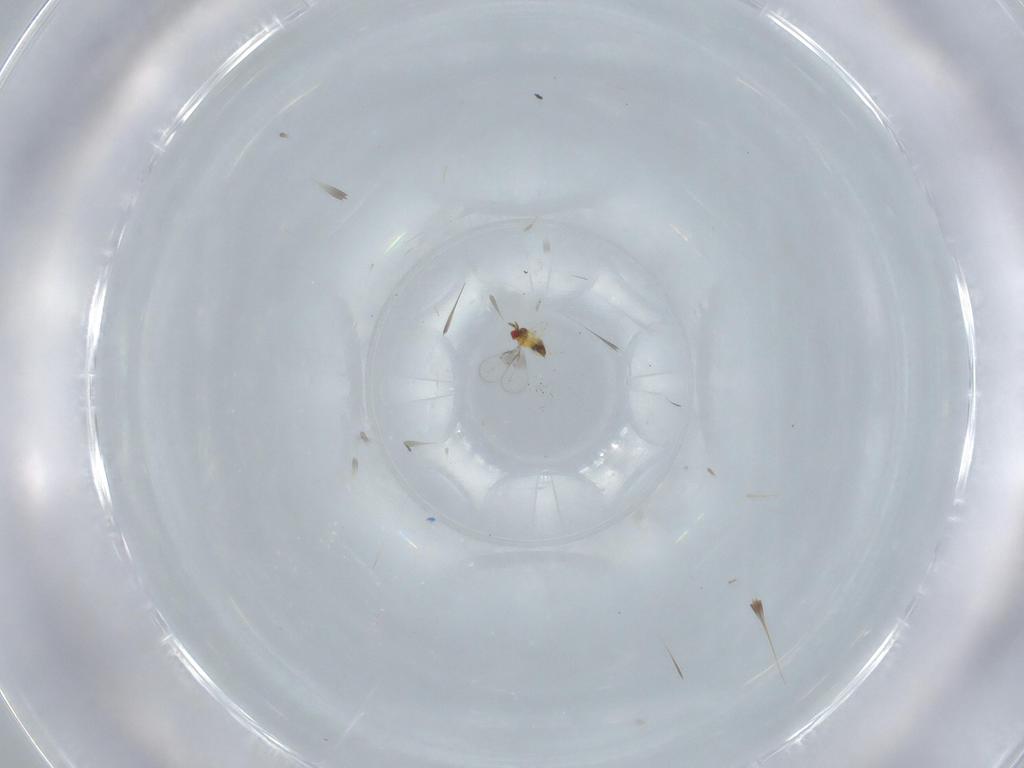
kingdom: Animalia
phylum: Arthropoda
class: Insecta
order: Hymenoptera
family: Trichogrammatidae
